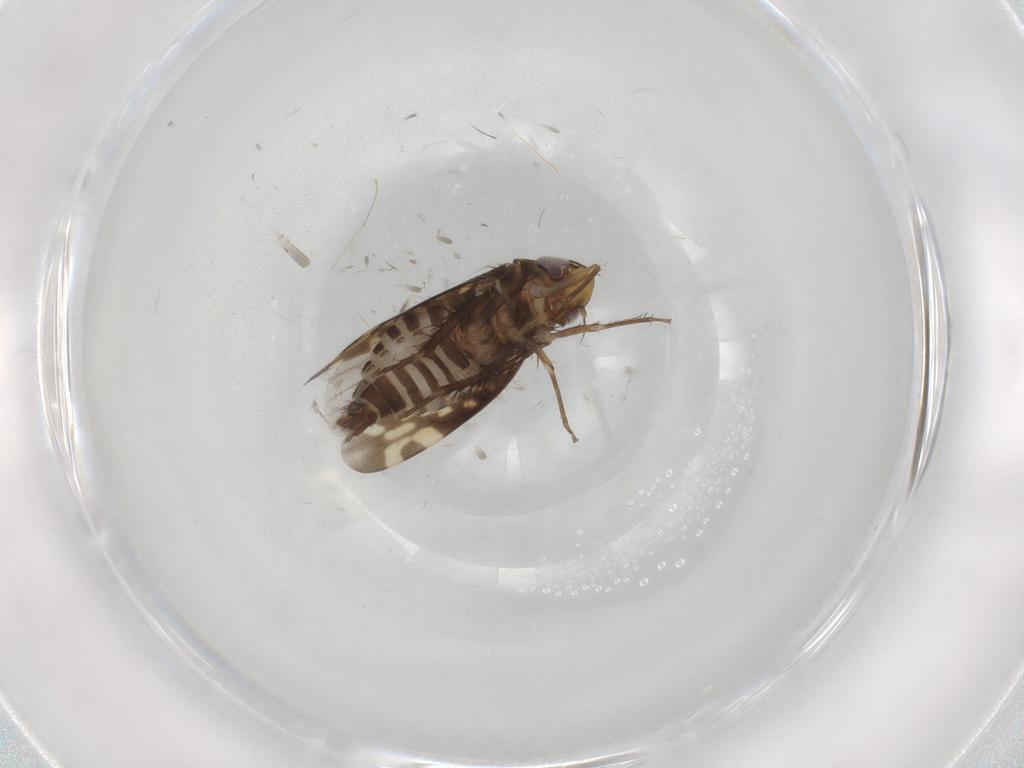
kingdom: Animalia
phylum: Arthropoda
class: Insecta
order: Hemiptera
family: Cicadellidae
